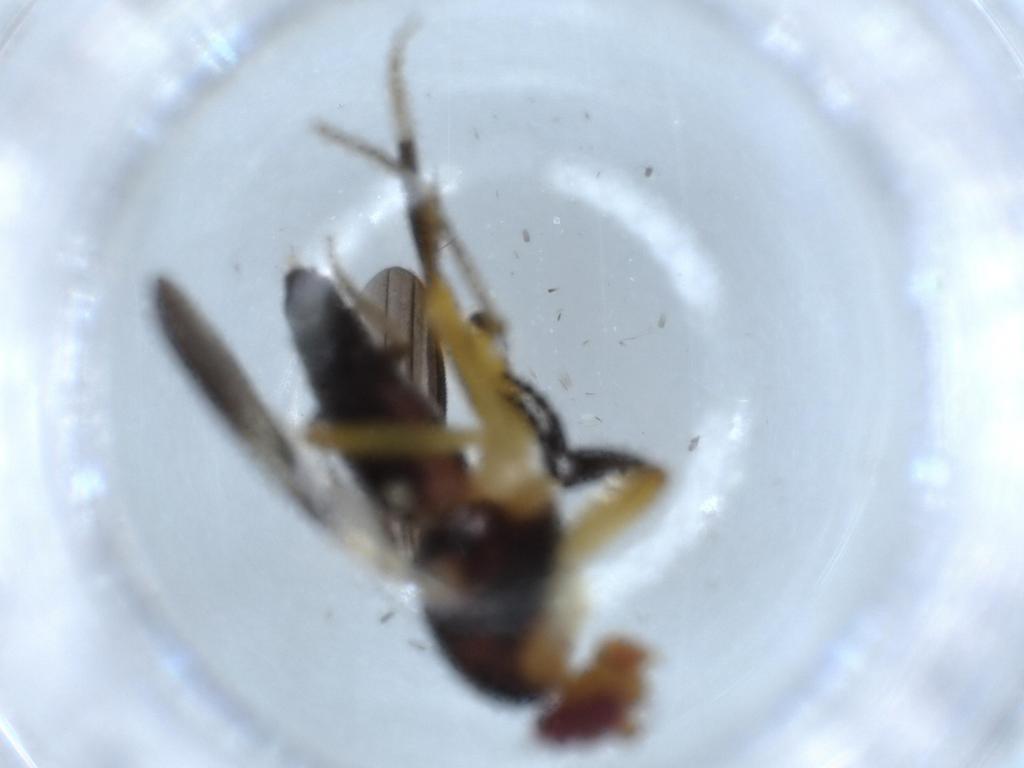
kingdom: Animalia
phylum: Arthropoda
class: Insecta
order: Diptera
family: Clusiidae
